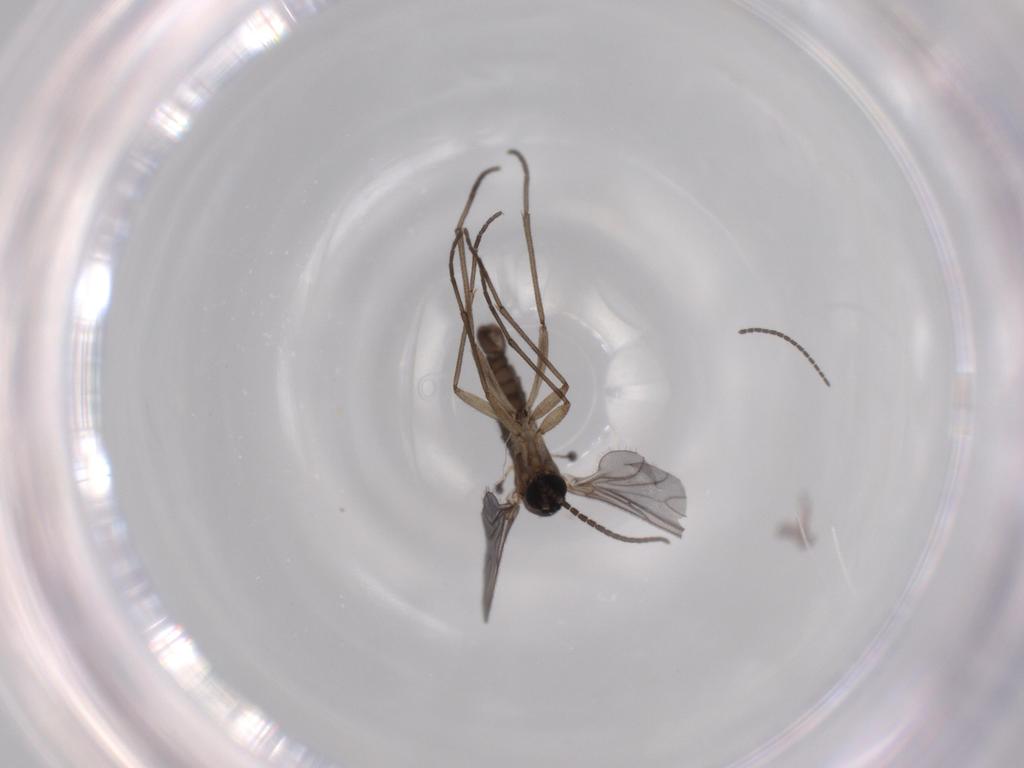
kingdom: Animalia
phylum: Arthropoda
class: Insecta
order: Diptera
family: Sciaridae
